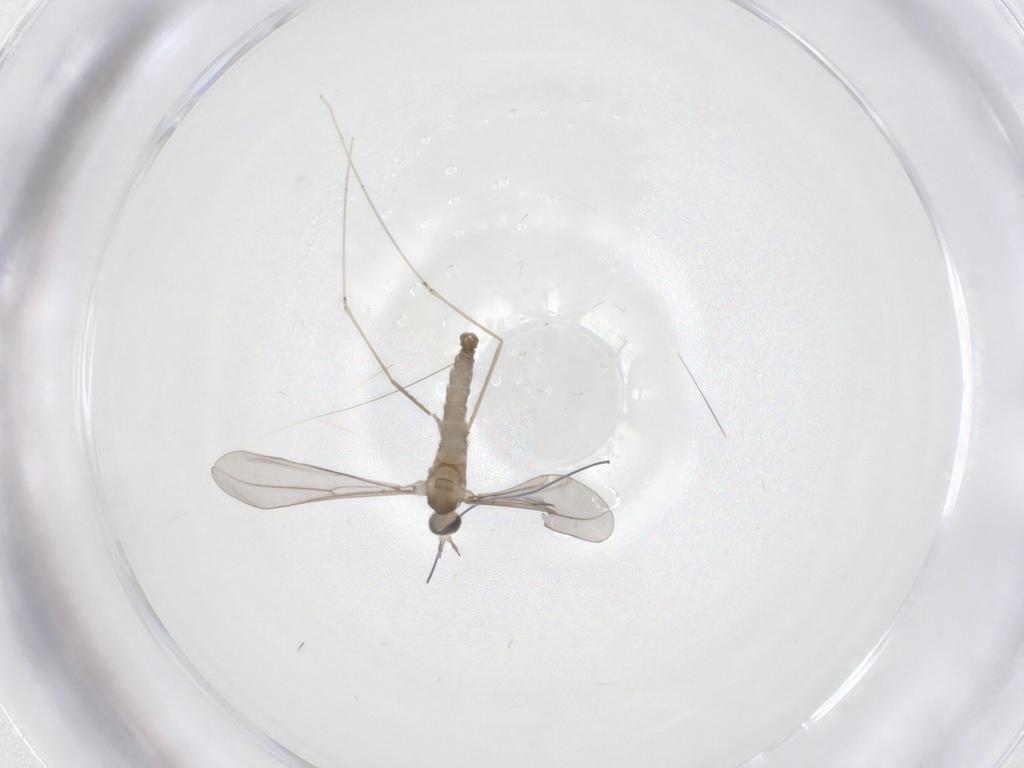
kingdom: Animalia
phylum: Arthropoda
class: Insecta
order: Diptera
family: Cecidomyiidae
